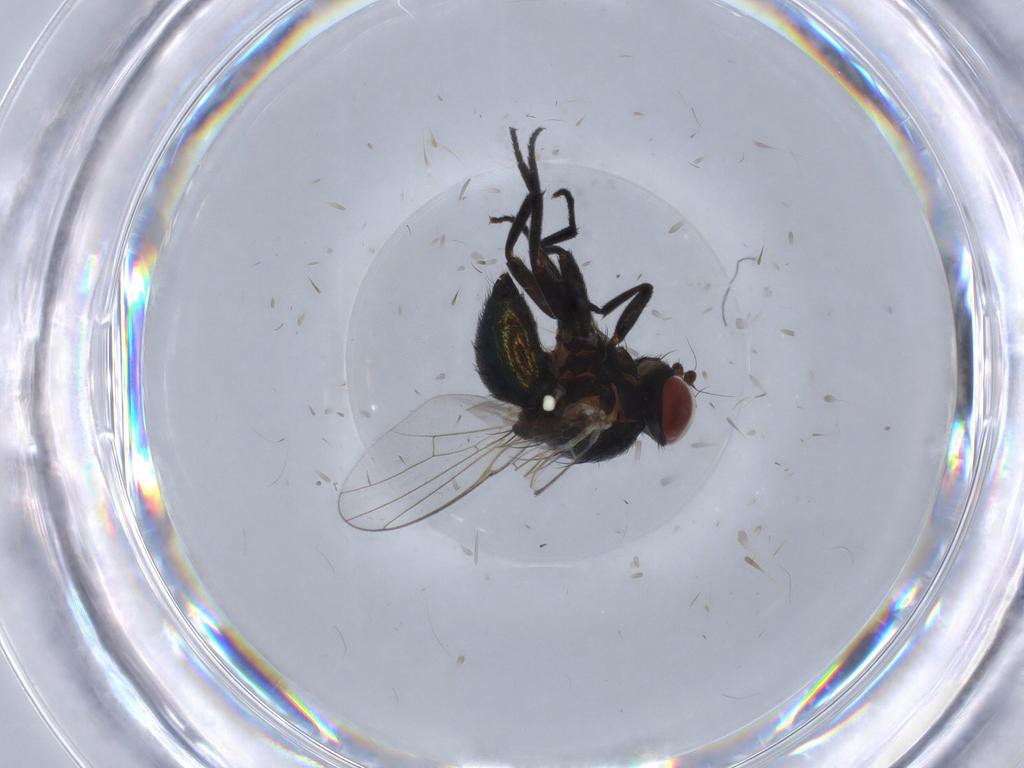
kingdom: Animalia
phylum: Arthropoda
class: Insecta
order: Diptera
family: Agromyzidae
